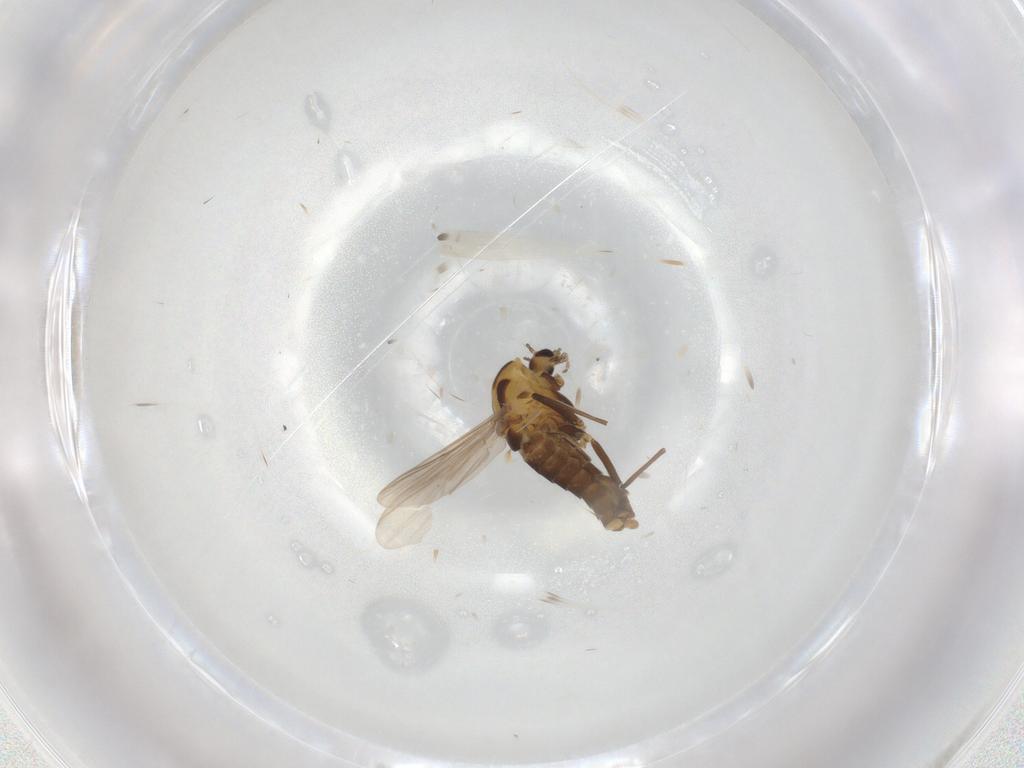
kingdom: Animalia
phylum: Arthropoda
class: Insecta
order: Diptera
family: Chironomidae
